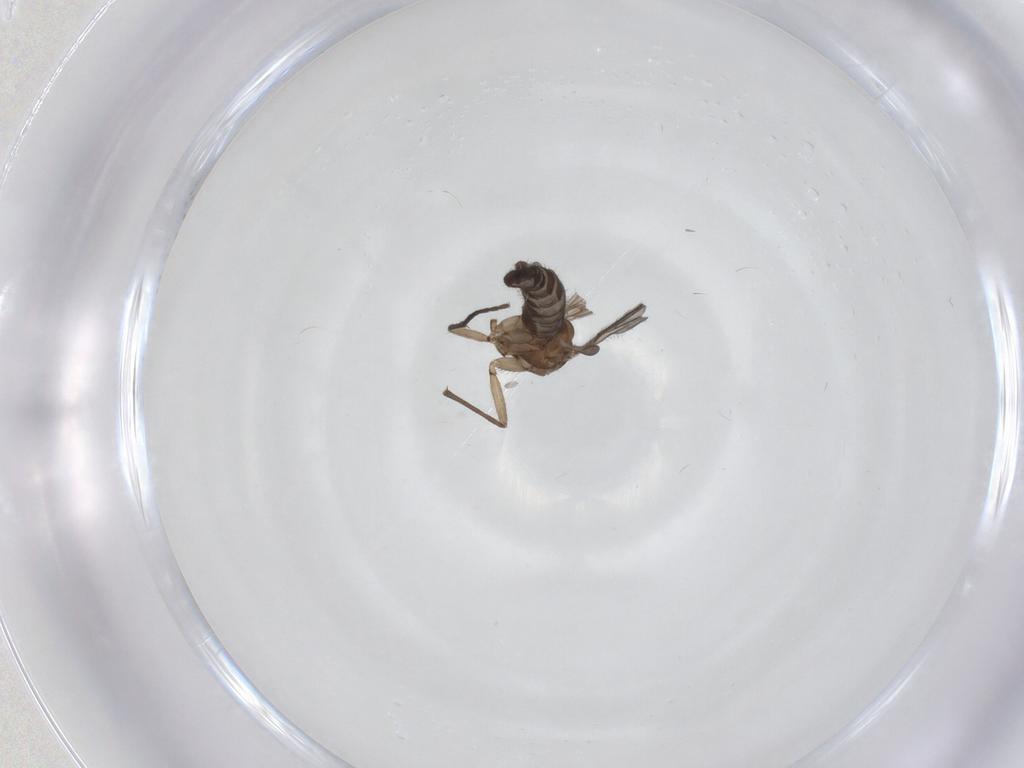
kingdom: Animalia
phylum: Arthropoda
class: Insecta
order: Diptera
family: Sciaridae
